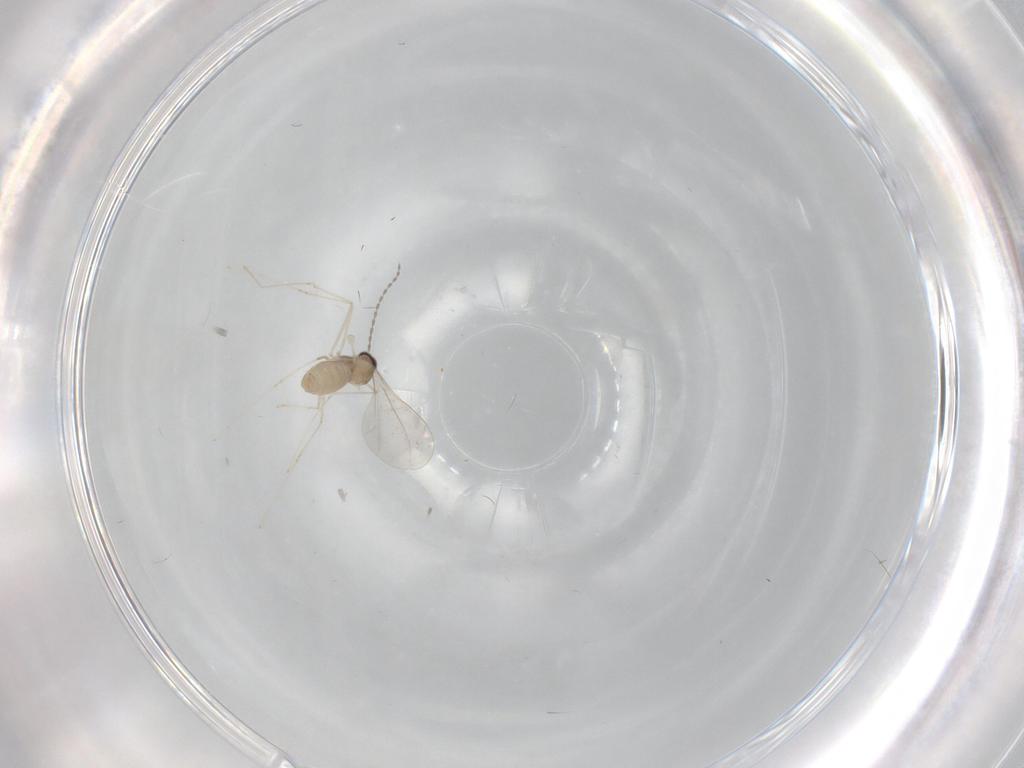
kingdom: Animalia
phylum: Arthropoda
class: Insecta
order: Diptera
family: Cecidomyiidae
